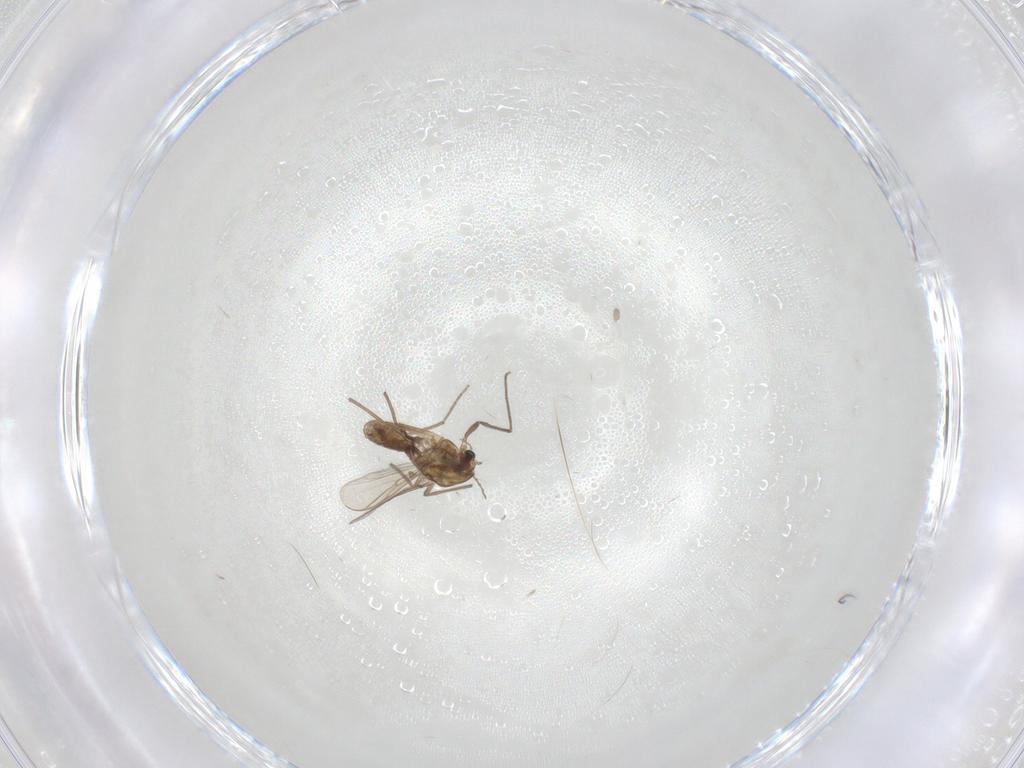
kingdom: Animalia
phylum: Arthropoda
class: Insecta
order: Diptera
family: Chironomidae
